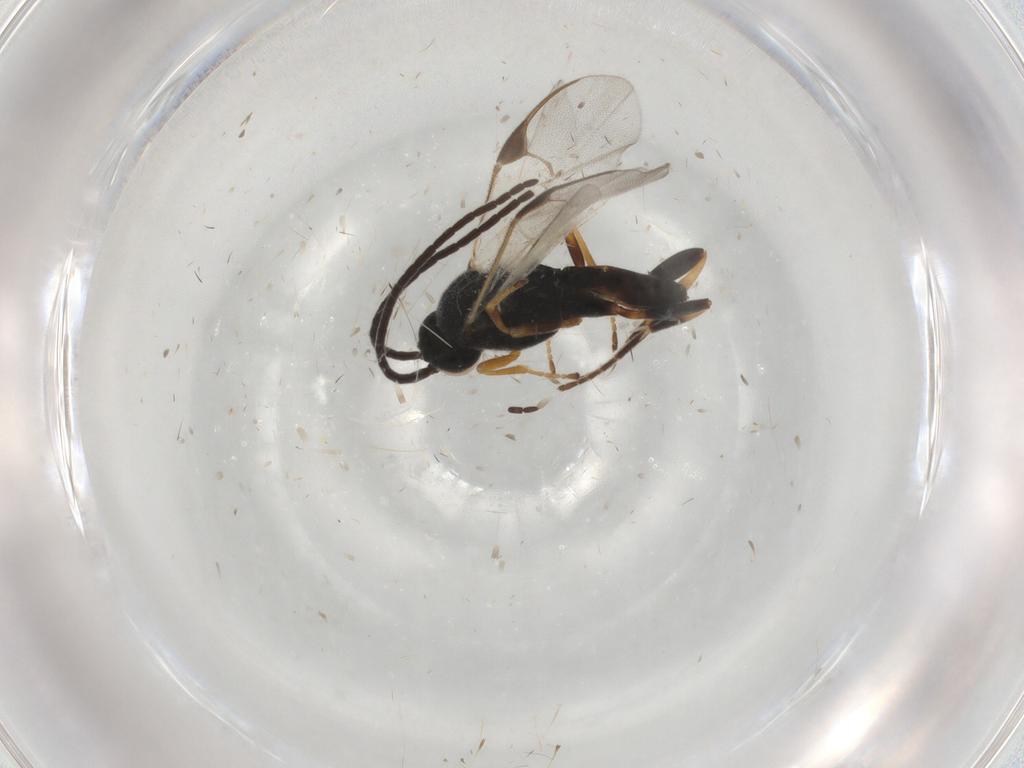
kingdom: Animalia
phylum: Arthropoda
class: Insecta
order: Hymenoptera
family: Braconidae
